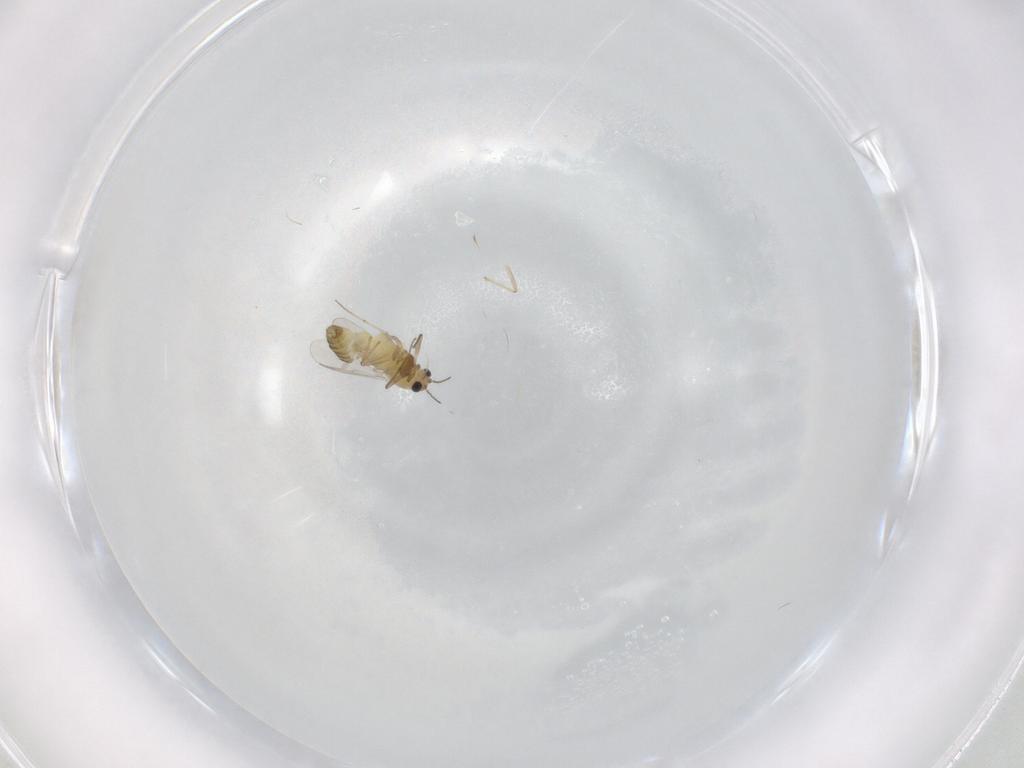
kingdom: Animalia
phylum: Arthropoda
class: Insecta
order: Diptera
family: Chironomidae
